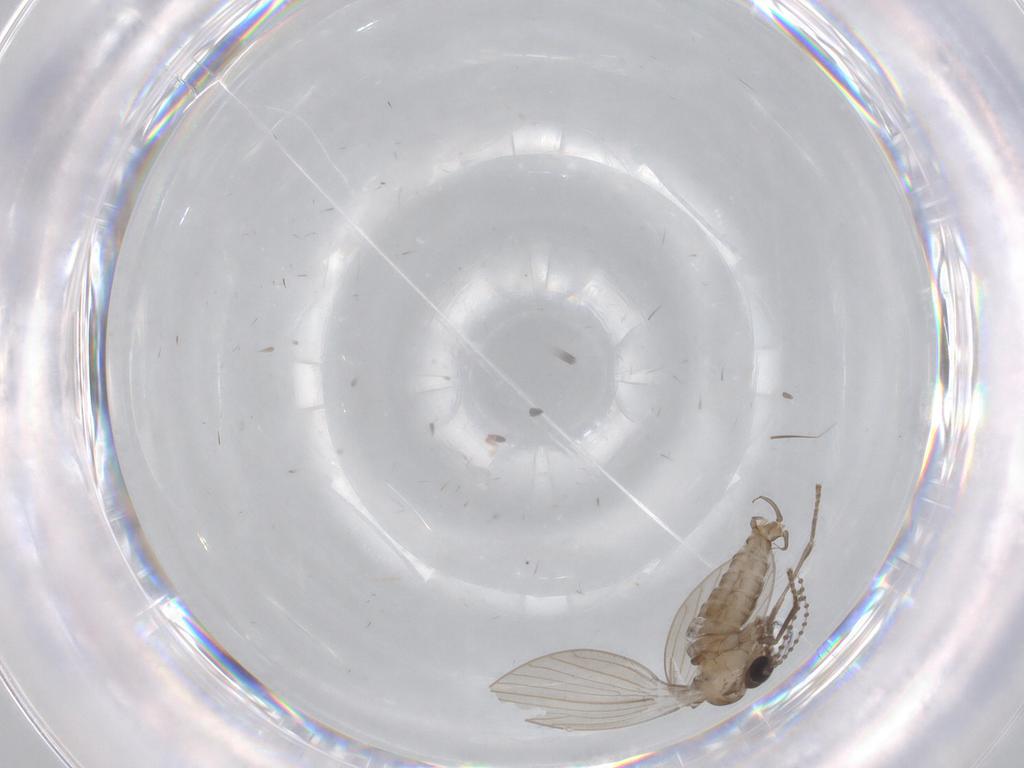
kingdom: Animalia
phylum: Arthropoda
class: Insecta
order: Diptera
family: Psychodidae
